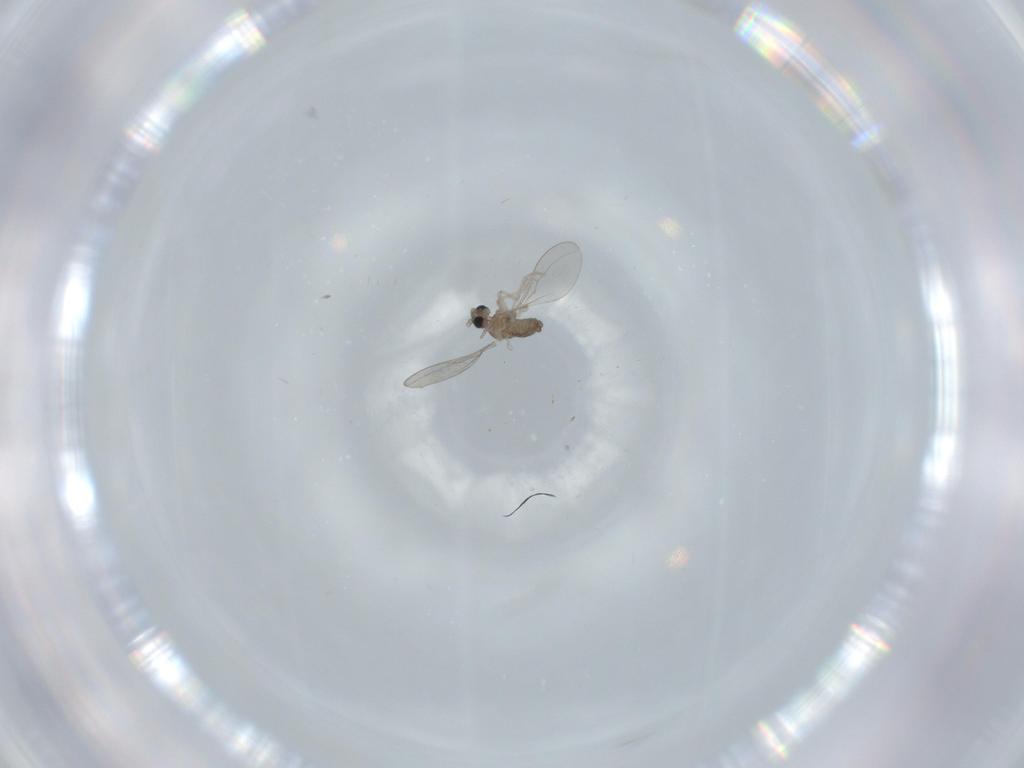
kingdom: Animalia
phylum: Arthropoda
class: Insecta
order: Diptera
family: Cecidomyiidae
